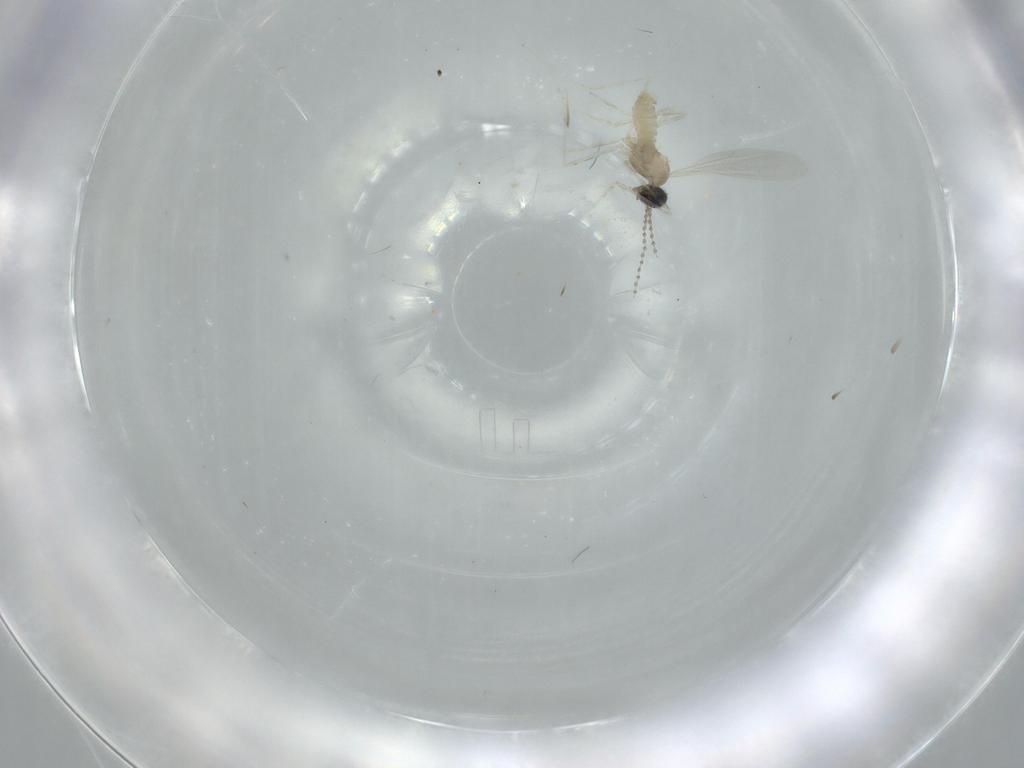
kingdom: Animalia
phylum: Arthropoda
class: Insecta
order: Diptera
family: Cecidomyiidae
